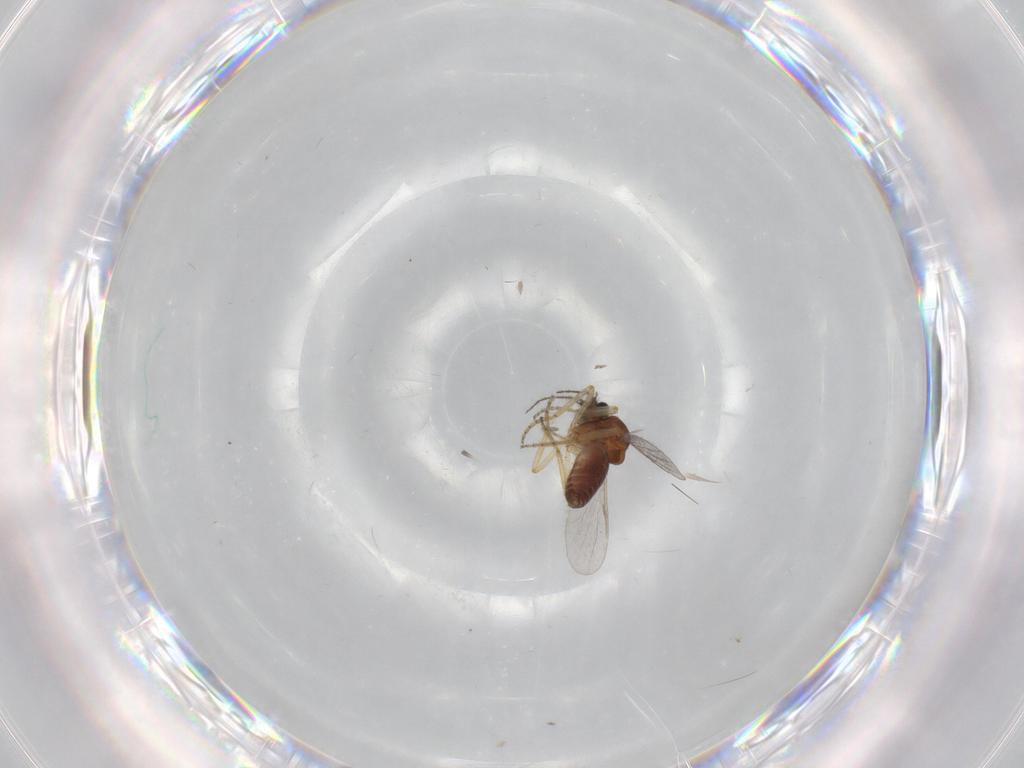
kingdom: Animalia
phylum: Arthropoda
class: Insecta
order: Diptera
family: Ceratopogonidae
